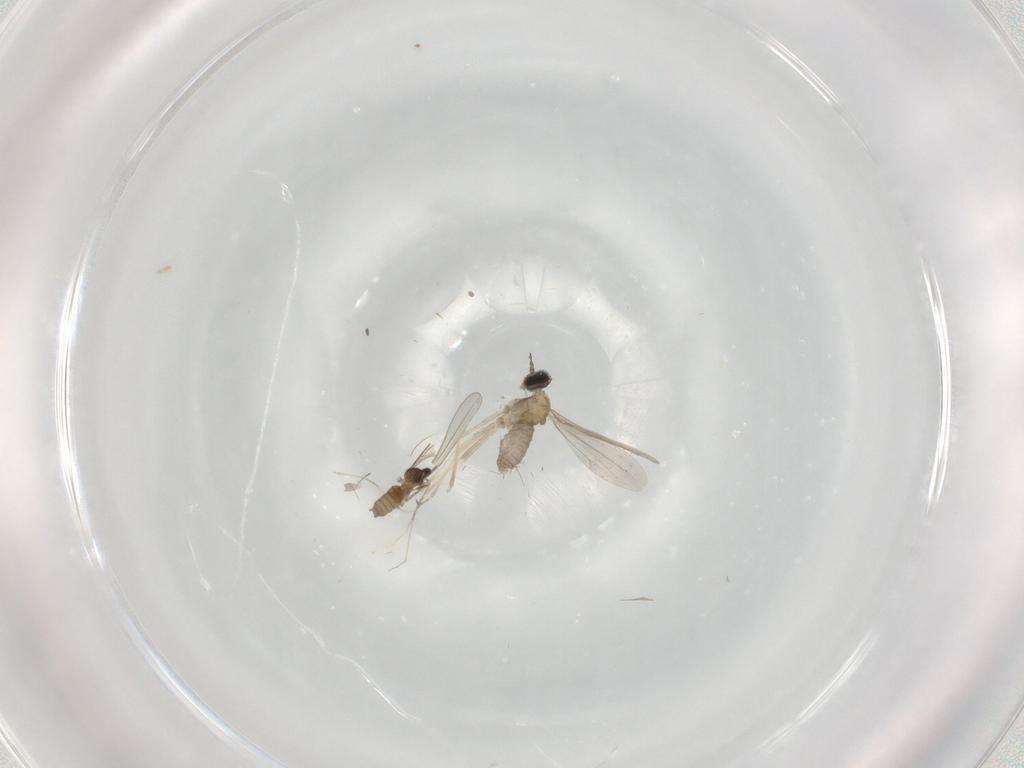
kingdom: Animalia
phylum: Arthropoda
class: Insecta
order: Diptera
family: Cecidomyiidae
